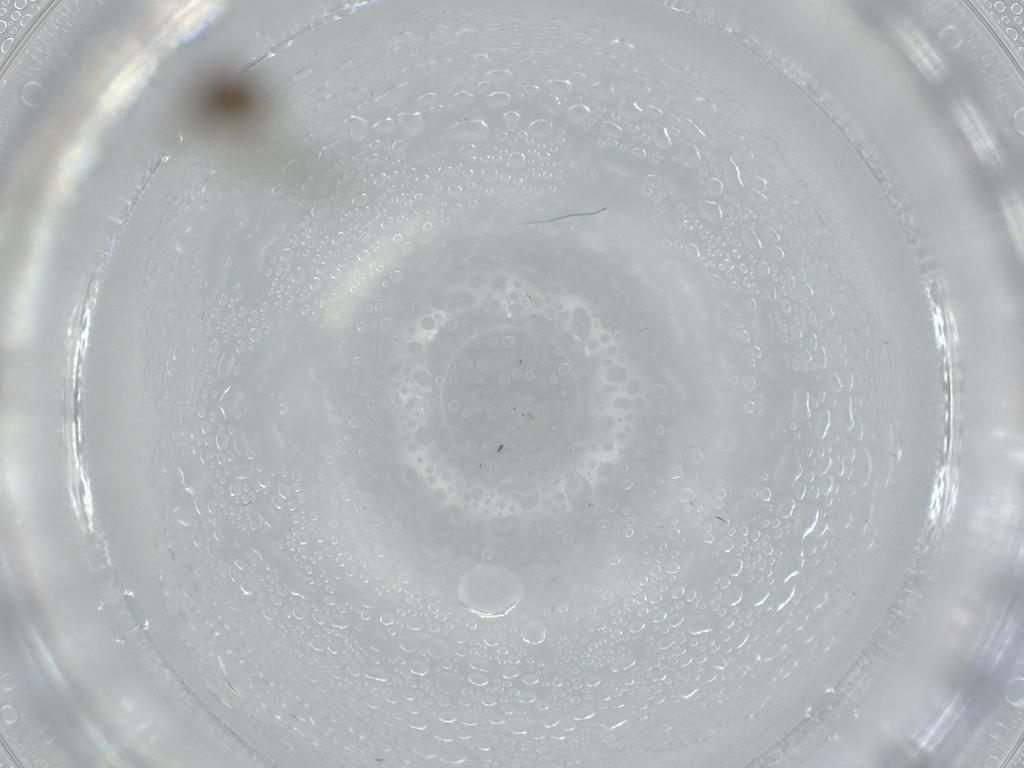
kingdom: Animalia
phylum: Arthropoda
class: Insecta
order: Diptera
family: Chironomidae
